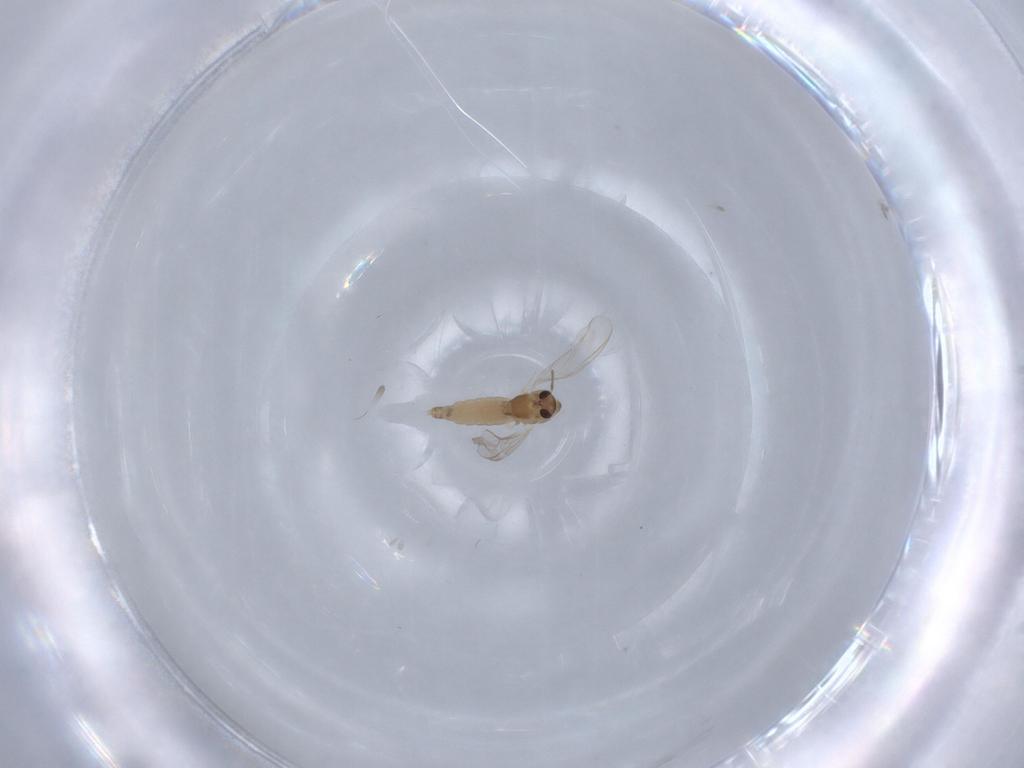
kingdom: Animalia
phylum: Arthropoda
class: Insecta
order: Diptera
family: Chironomidae
